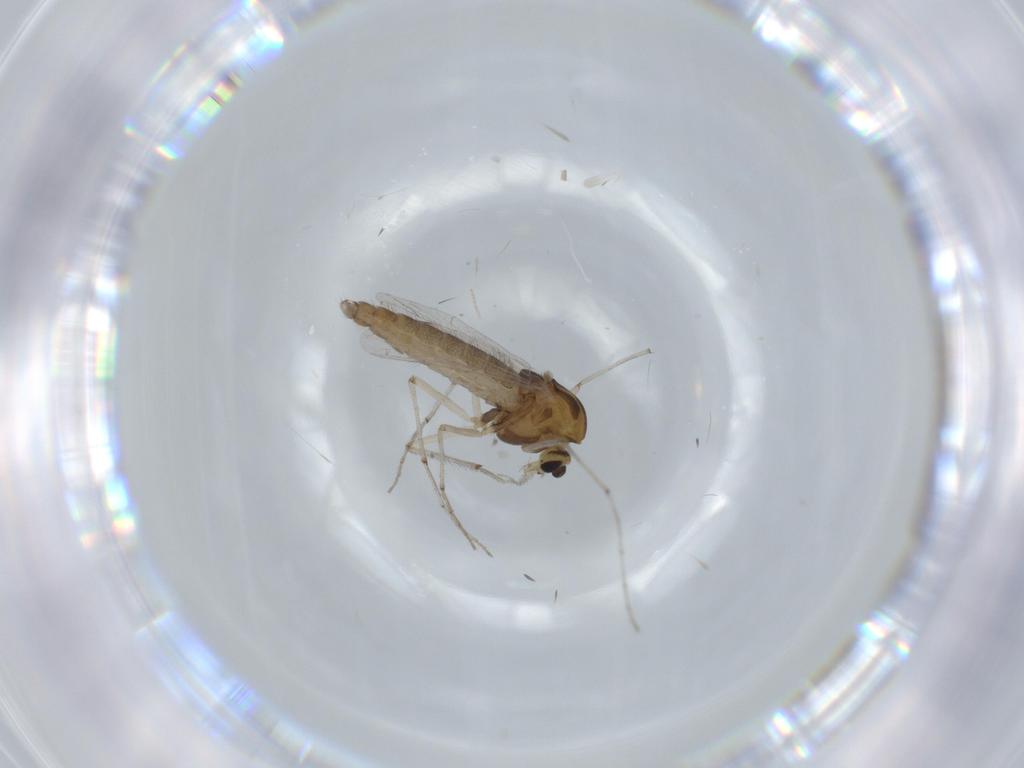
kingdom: Animalia
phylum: Arthropoda
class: Insecta
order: Diptera
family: Chironomidae
